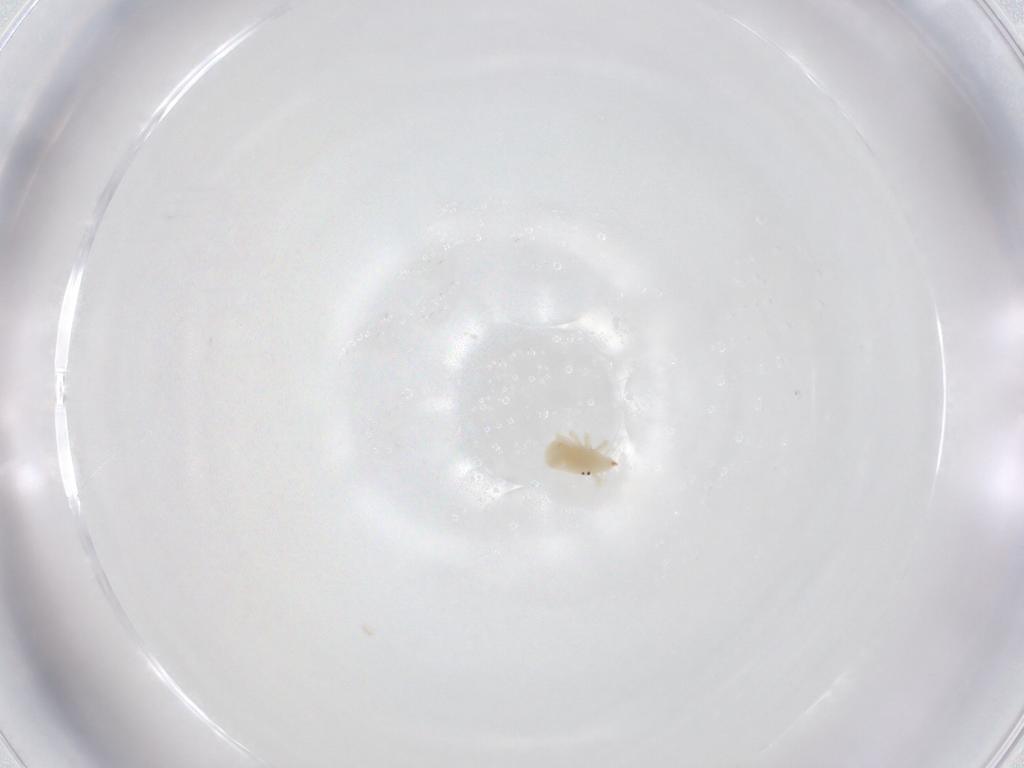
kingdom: Animalia
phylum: Arthropoda
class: Arachnida
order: Trombidiformes
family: Bdellidae
